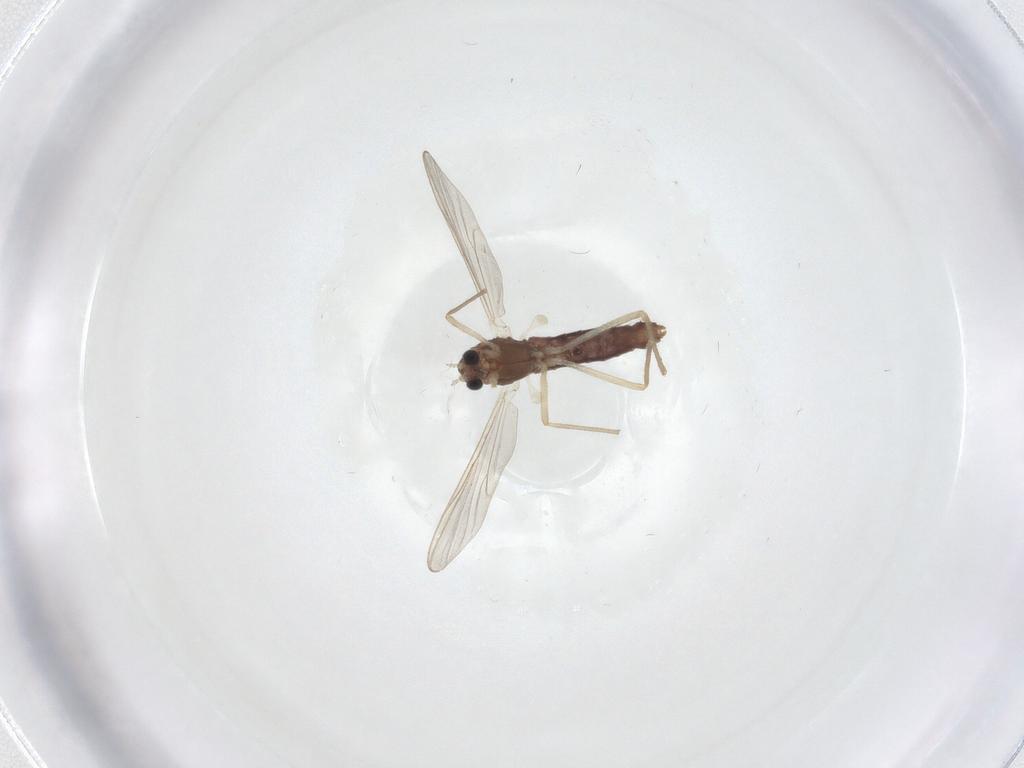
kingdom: Animalia
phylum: Arthropoda
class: Insecta
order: Diptera
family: Chironomidae
